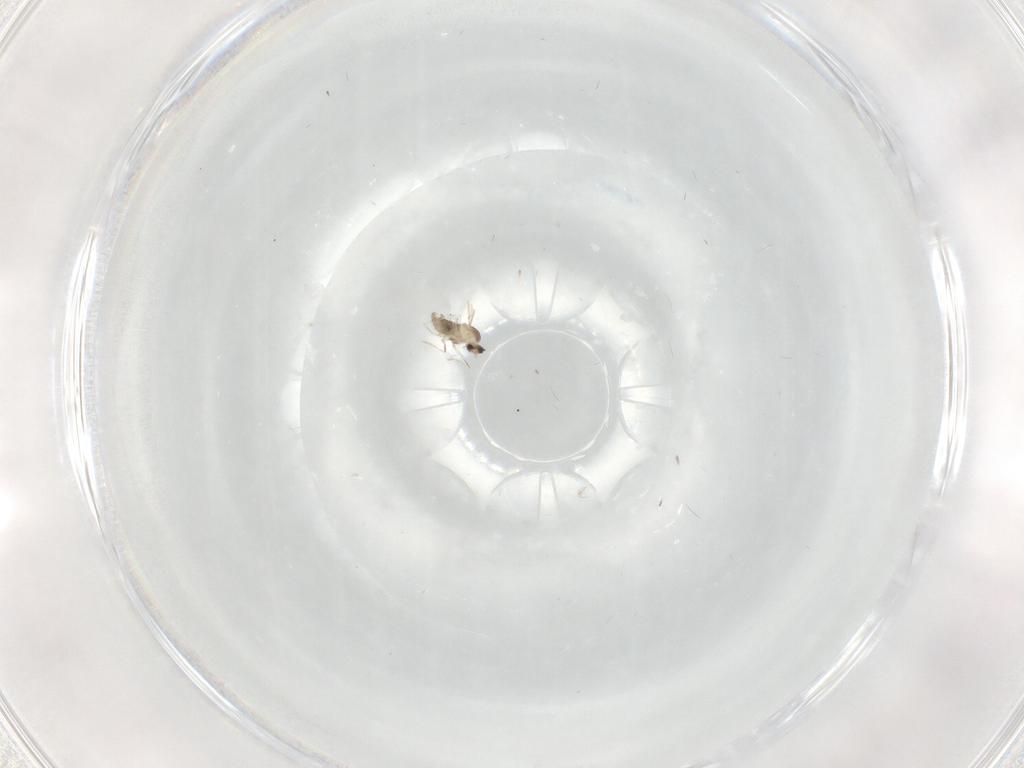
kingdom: Animalia
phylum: Arthropoda
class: Insecta
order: Diptera
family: Cecidomyiidae
